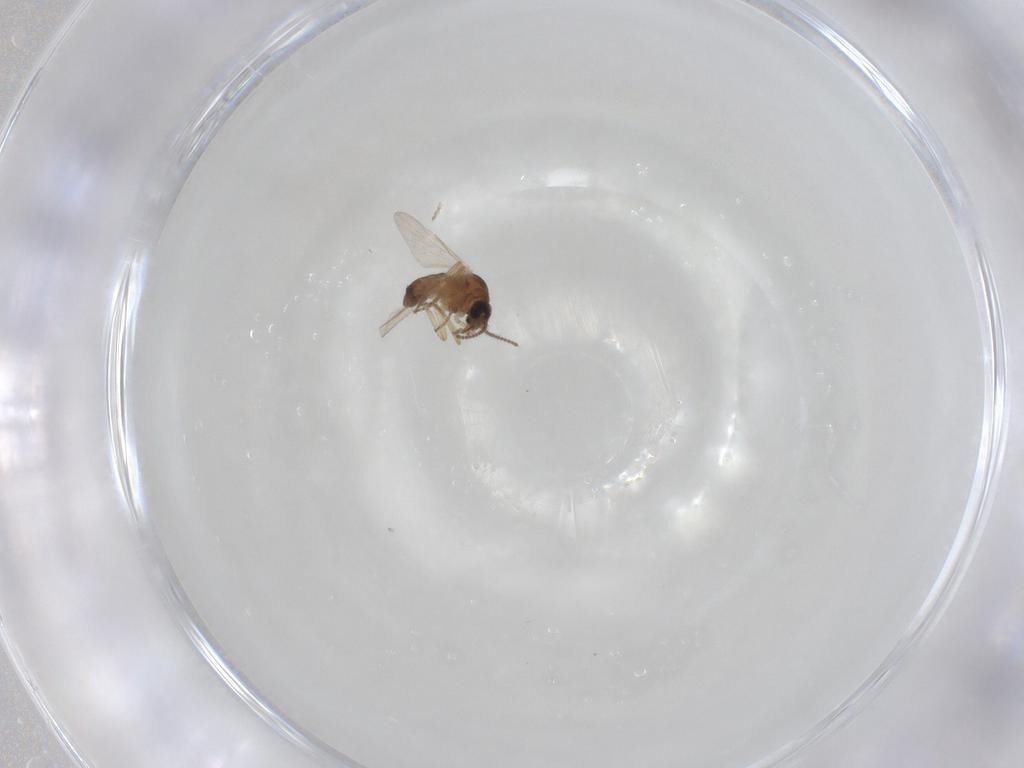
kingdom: Animalia
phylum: Arthropoda
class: Insecta
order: Diptera
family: Ceratopogonidae
